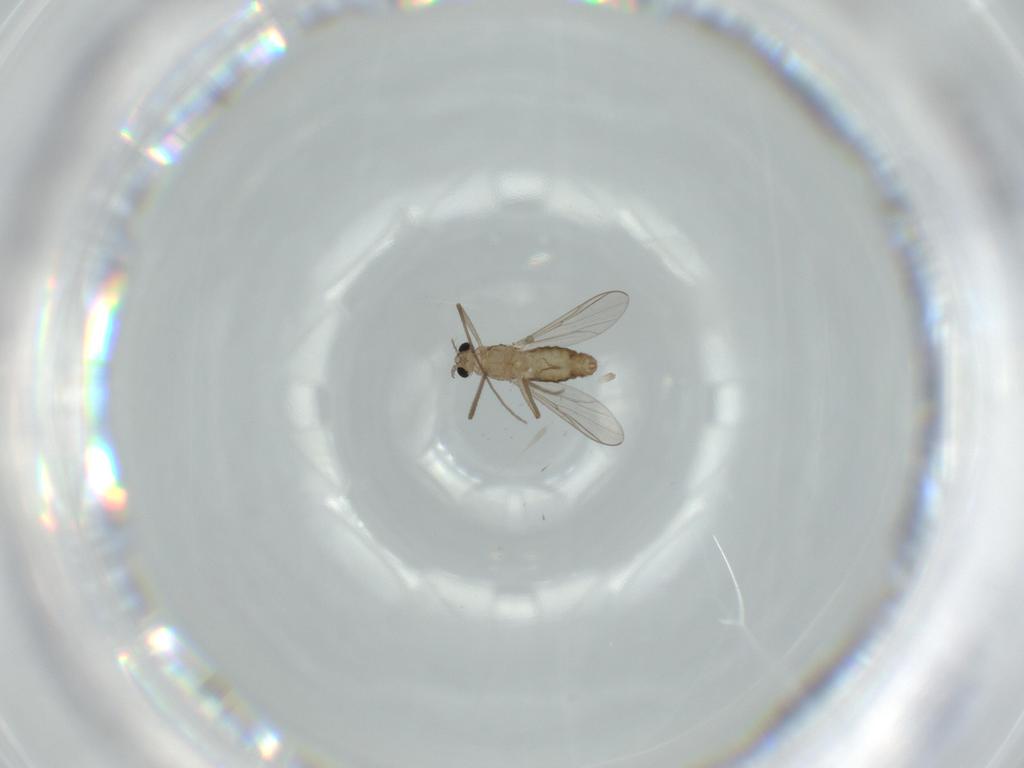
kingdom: Animalia
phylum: Arthropoda
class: Insecta
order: Diptera
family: Chironomidae
